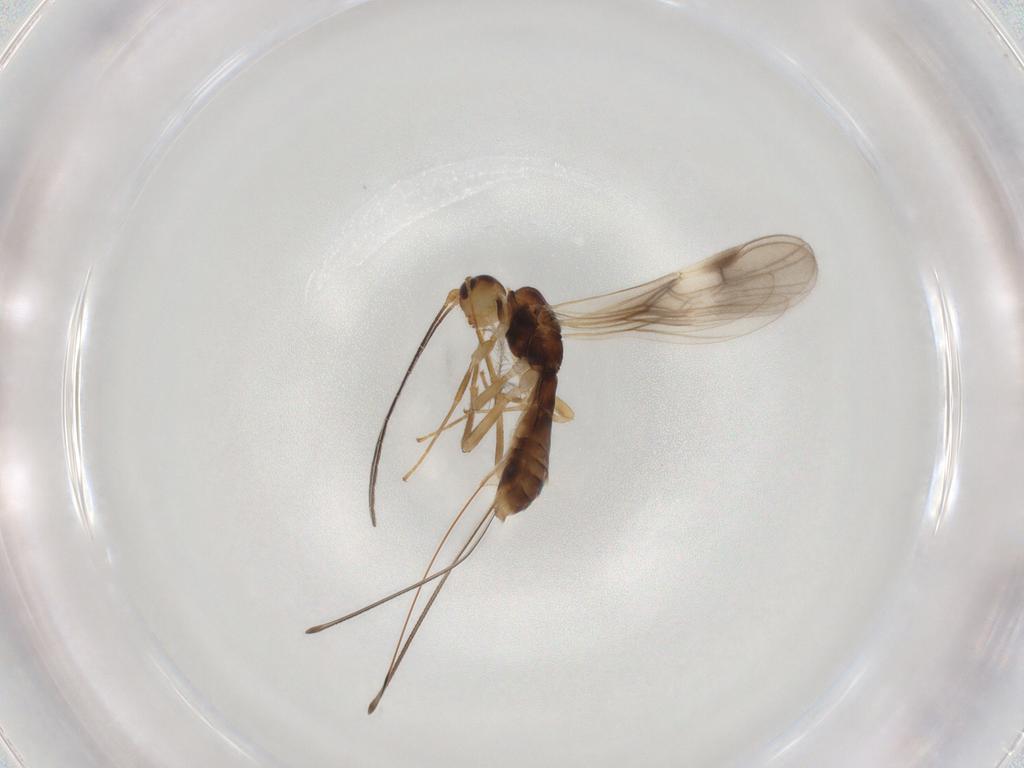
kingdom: Animalia
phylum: Arthropoda
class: Insecta
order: Hymenoptera
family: Braconidae
